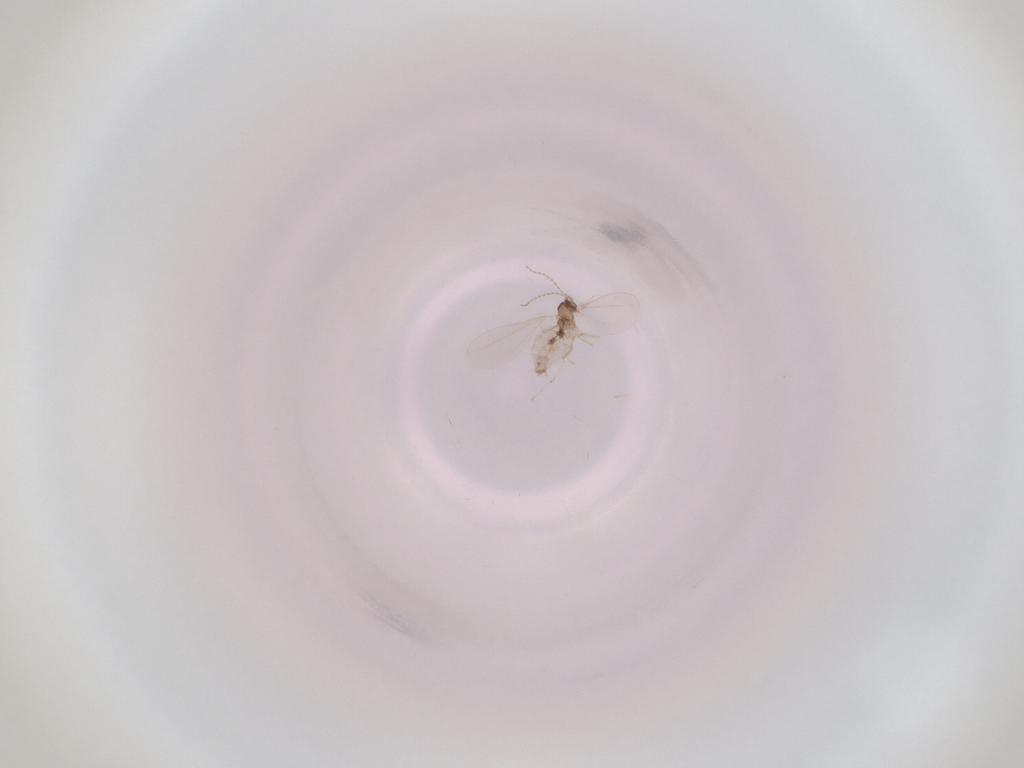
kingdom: Animalia
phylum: Arthropoda
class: Insecta
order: Diptera
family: Cecidomyiidae
